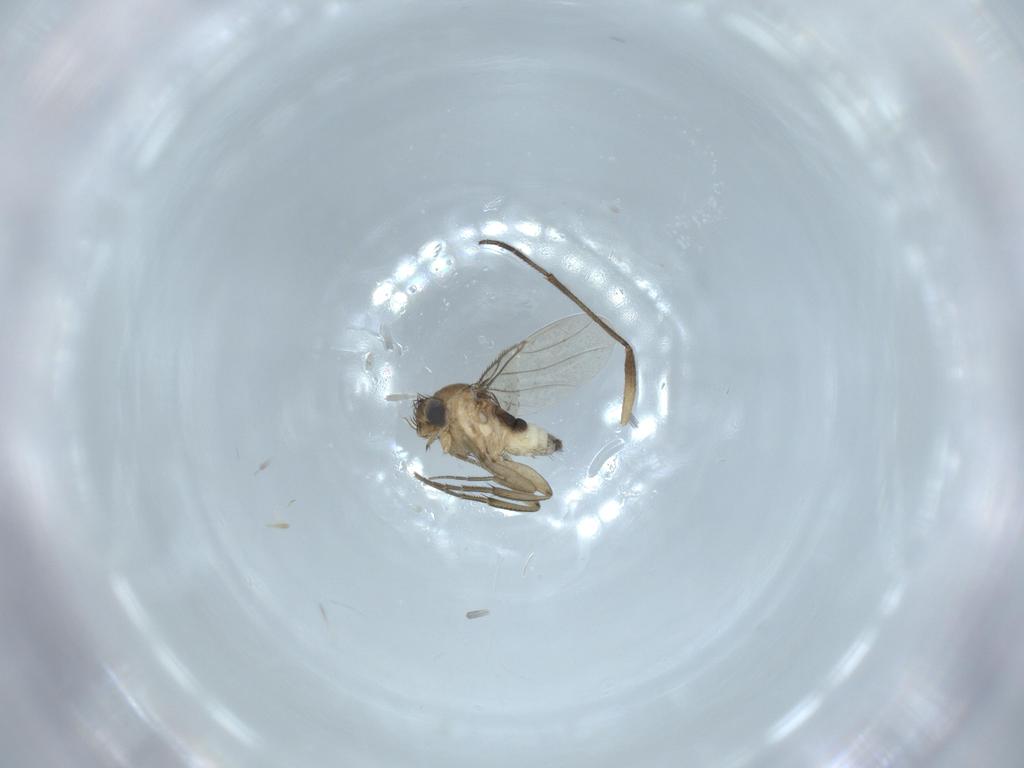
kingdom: Animalia
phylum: Arthropoda
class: Insecta
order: Diptera
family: Phoridae
